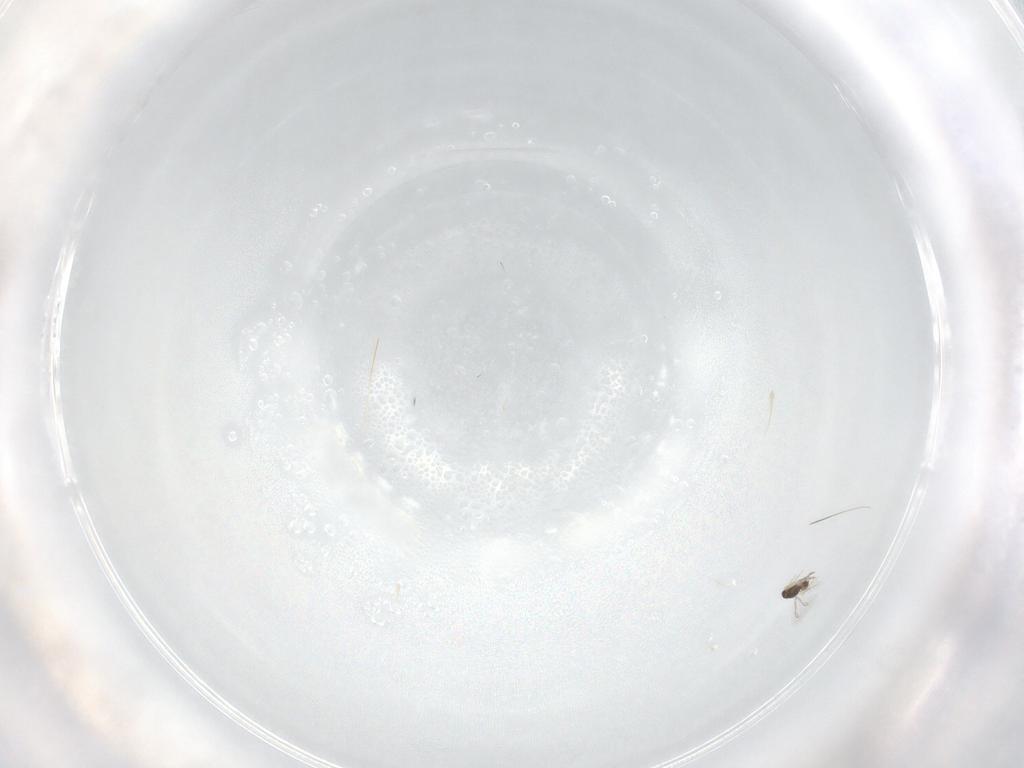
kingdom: Animalia
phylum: Arthropoda
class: Insecta
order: Hymenoptera
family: Mymaridae
